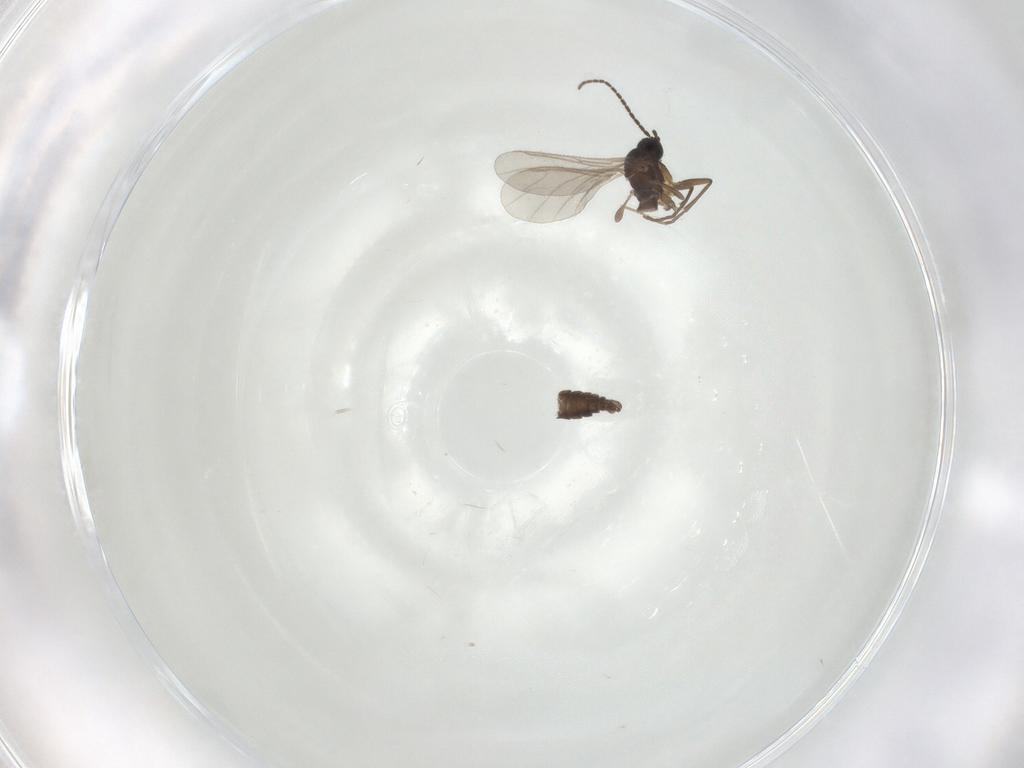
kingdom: Animalia
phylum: Arthropoda
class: Insecta
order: Diptera
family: Sciaridae
